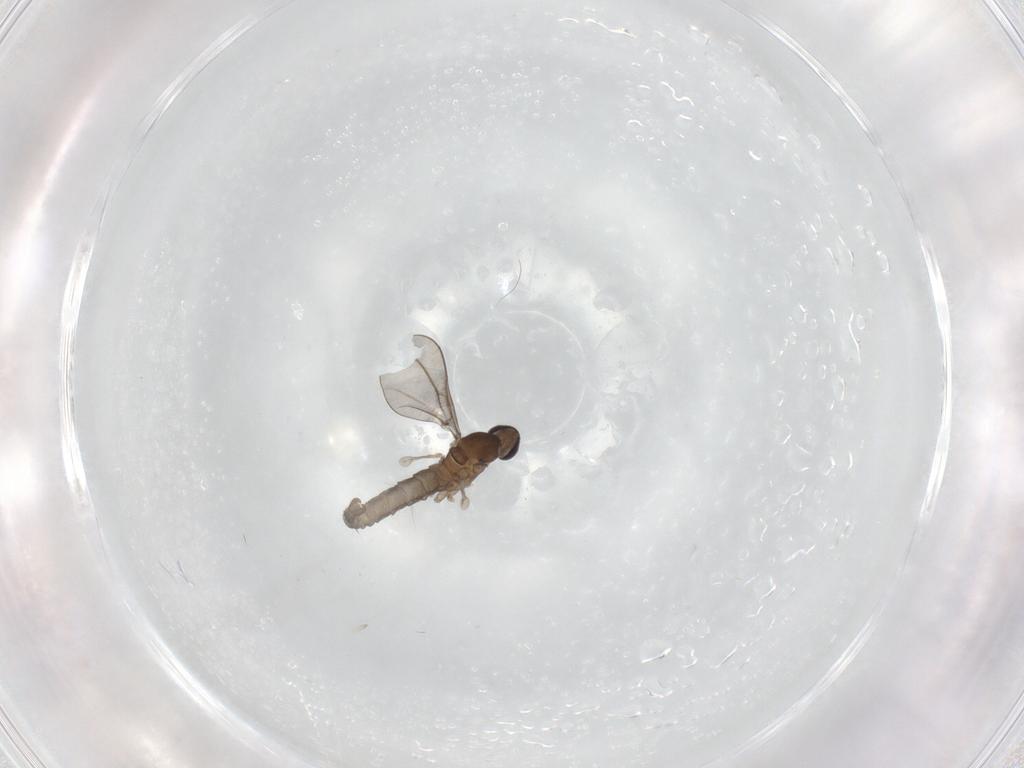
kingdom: Animalia
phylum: Arthropoda
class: Insecta
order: Diptera
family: Cecidomyiidae
